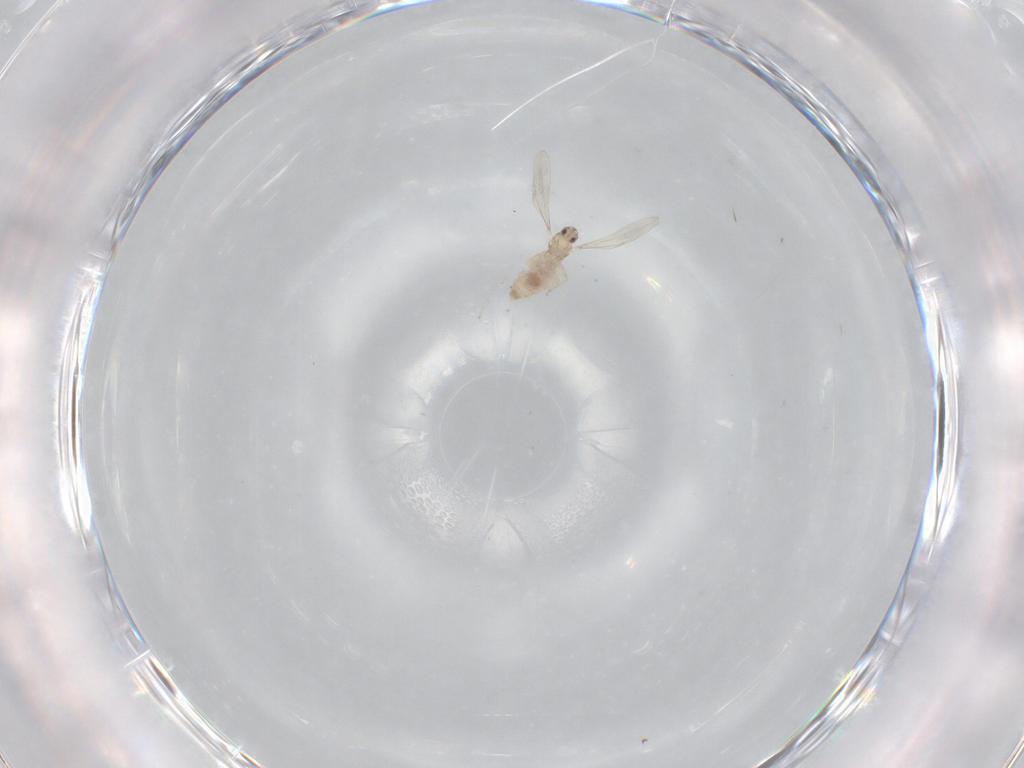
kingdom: Animalia
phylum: Arthropoda
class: Insecta
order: Diptera
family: Cecidomyiidae
